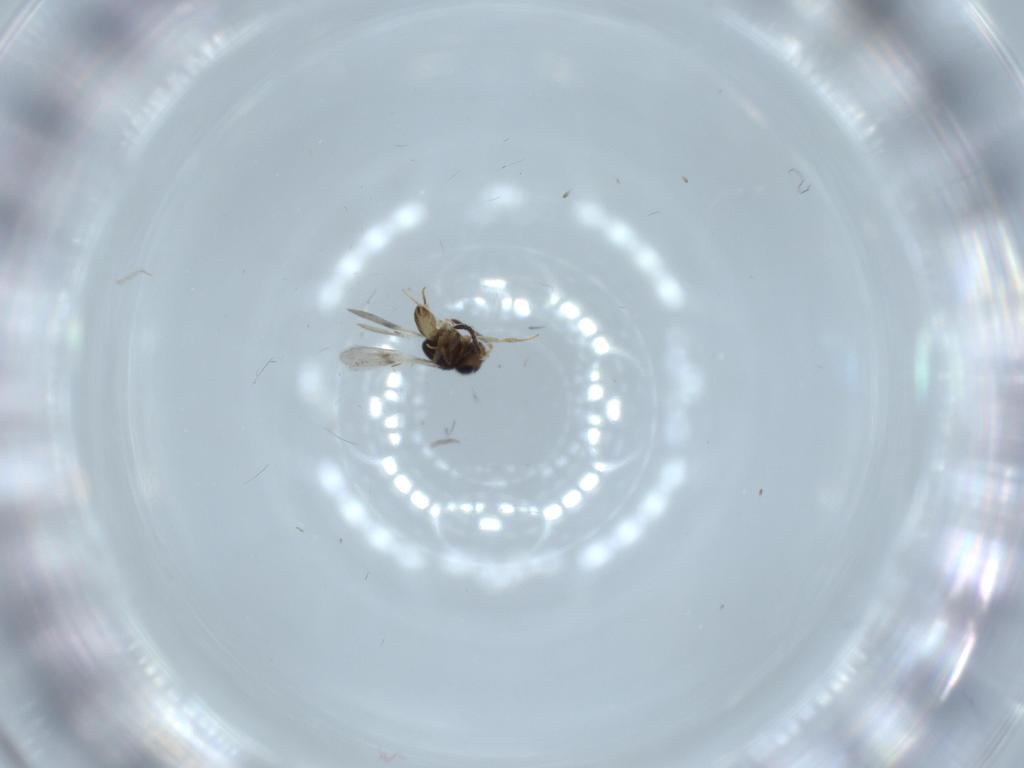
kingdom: Animalia
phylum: Arthropoda
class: Insecta
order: Hymenoptera
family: Scelionidae
